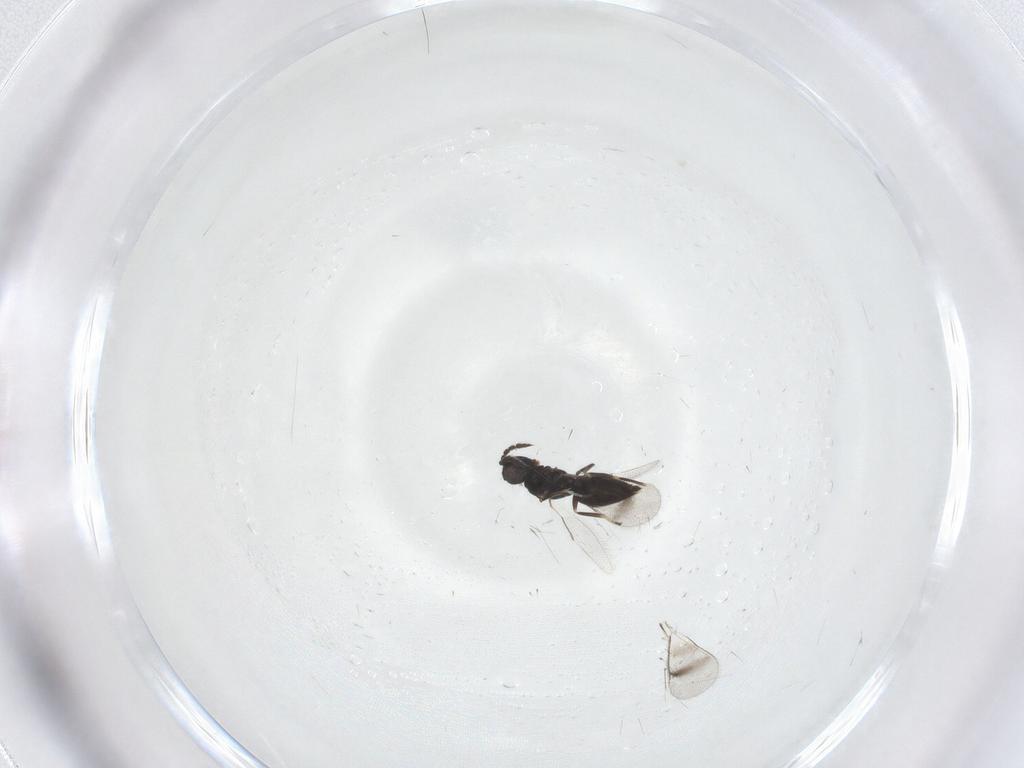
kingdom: Animalia
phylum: Arthropoda
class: Insecta
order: Hymenoptera
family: Eulophidae
